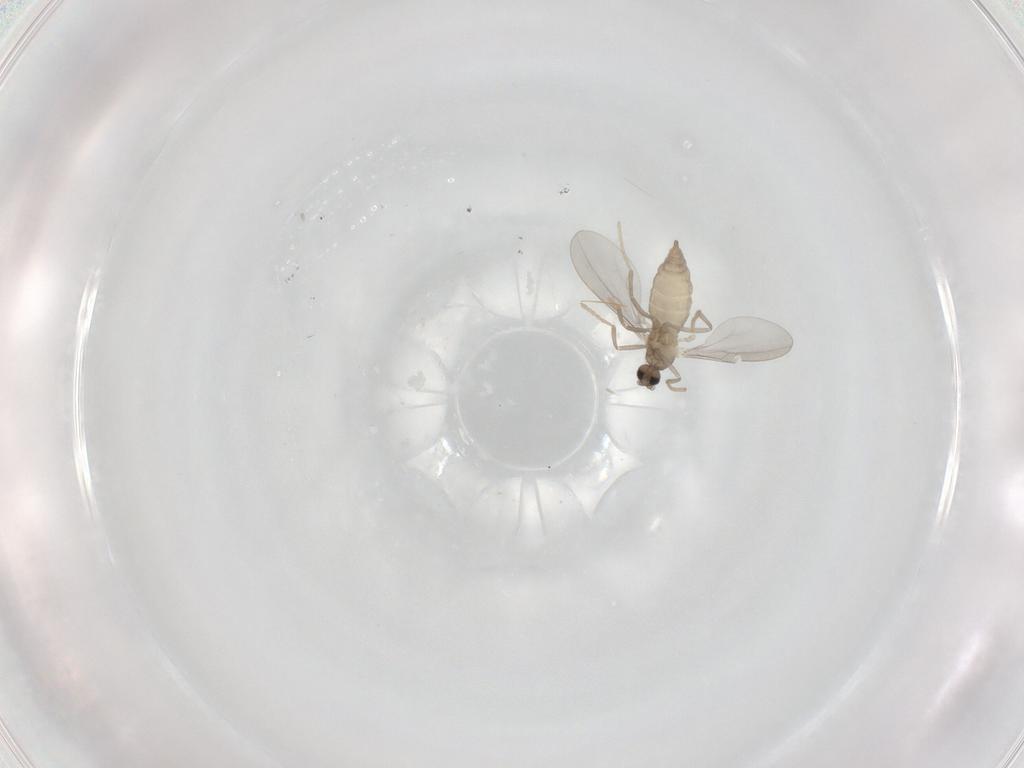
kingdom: Animalia
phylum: Arthropoda
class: Insecta
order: Diptera
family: Cecidomyiidae
